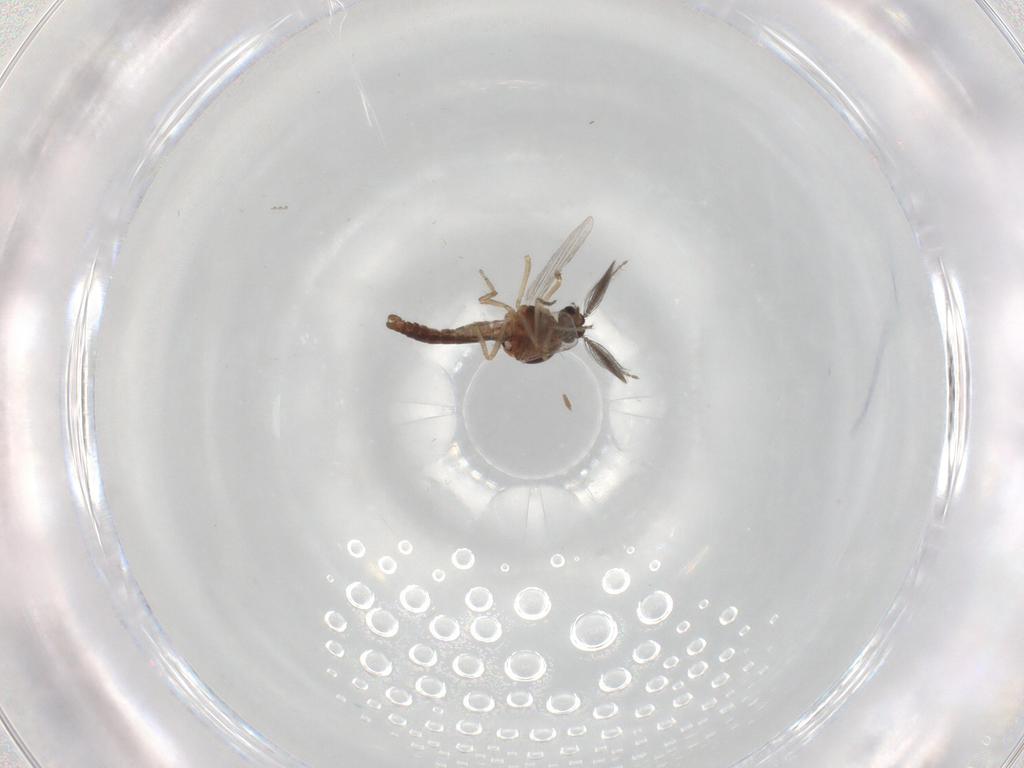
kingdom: Animalia
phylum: Arthropoda
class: Insecta
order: Diptera
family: Ceratopogonidae
